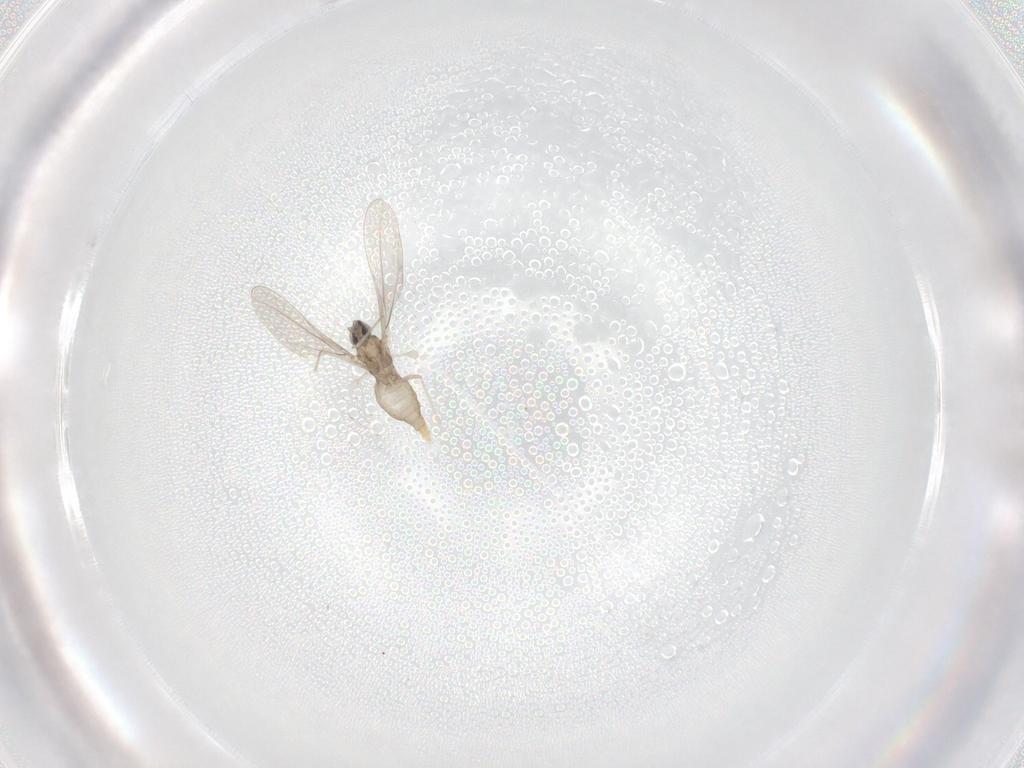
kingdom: Animalia
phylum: Arthropoda
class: Insecta
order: Diptera
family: Cecidomyiidae
